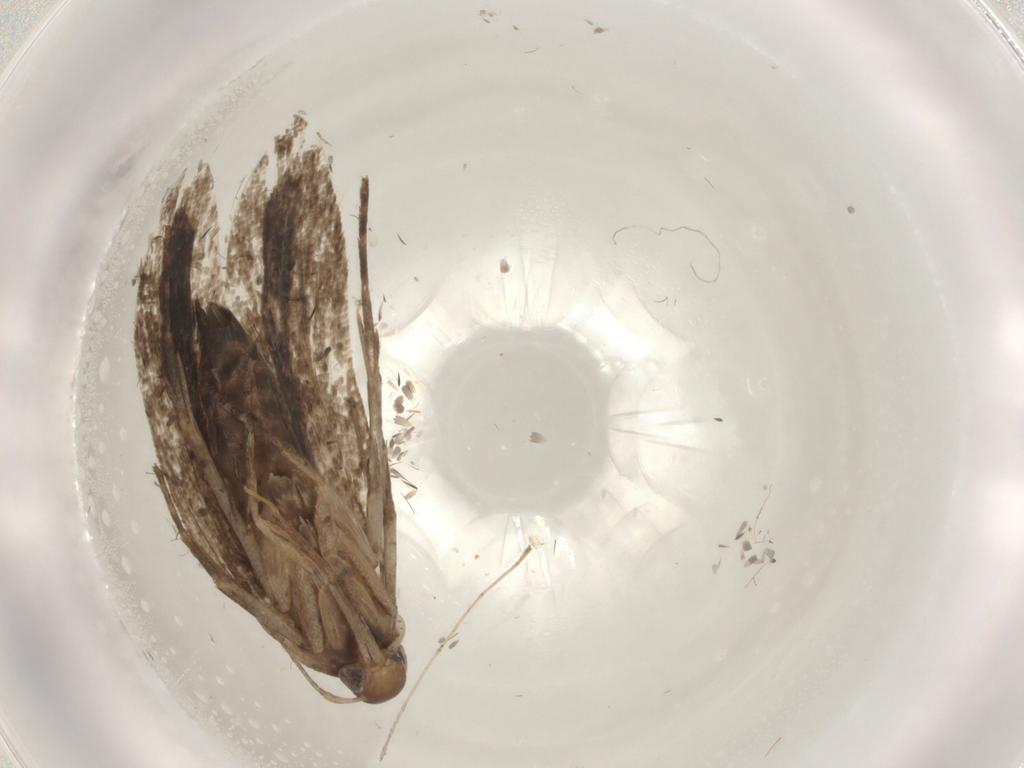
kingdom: Animalia
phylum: Arthropoda
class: Insecta
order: Lepidoptera
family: Gelechiidae
